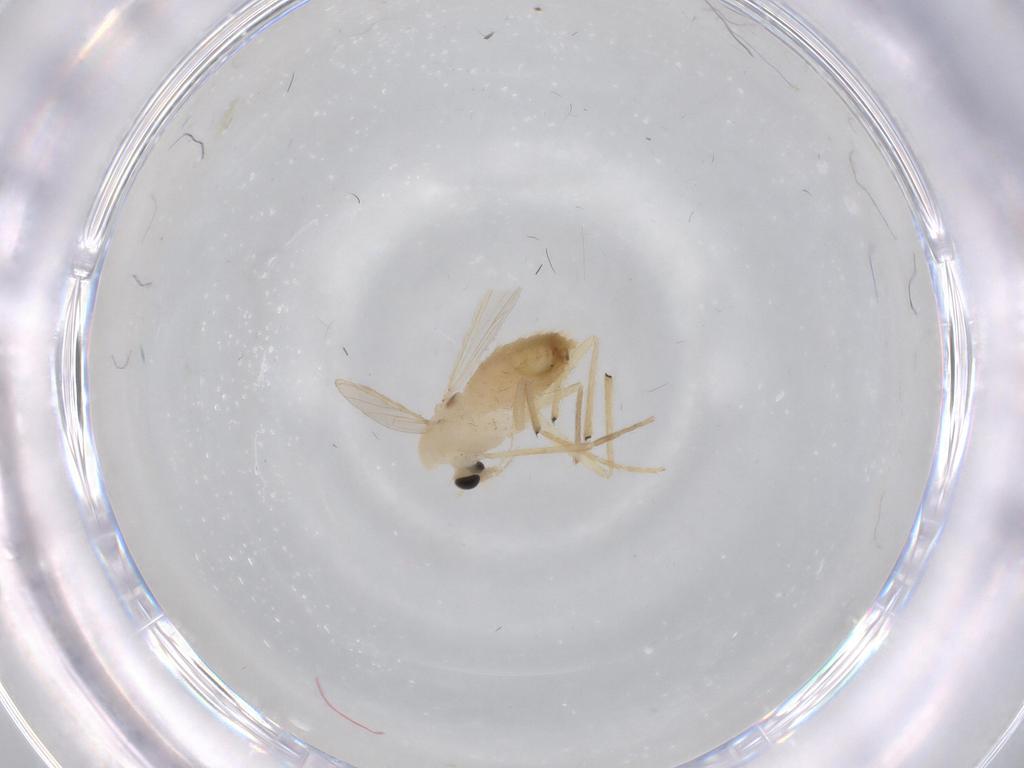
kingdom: Animalia
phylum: Arthropoda
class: Insecta
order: Diptera
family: Chironomidae
